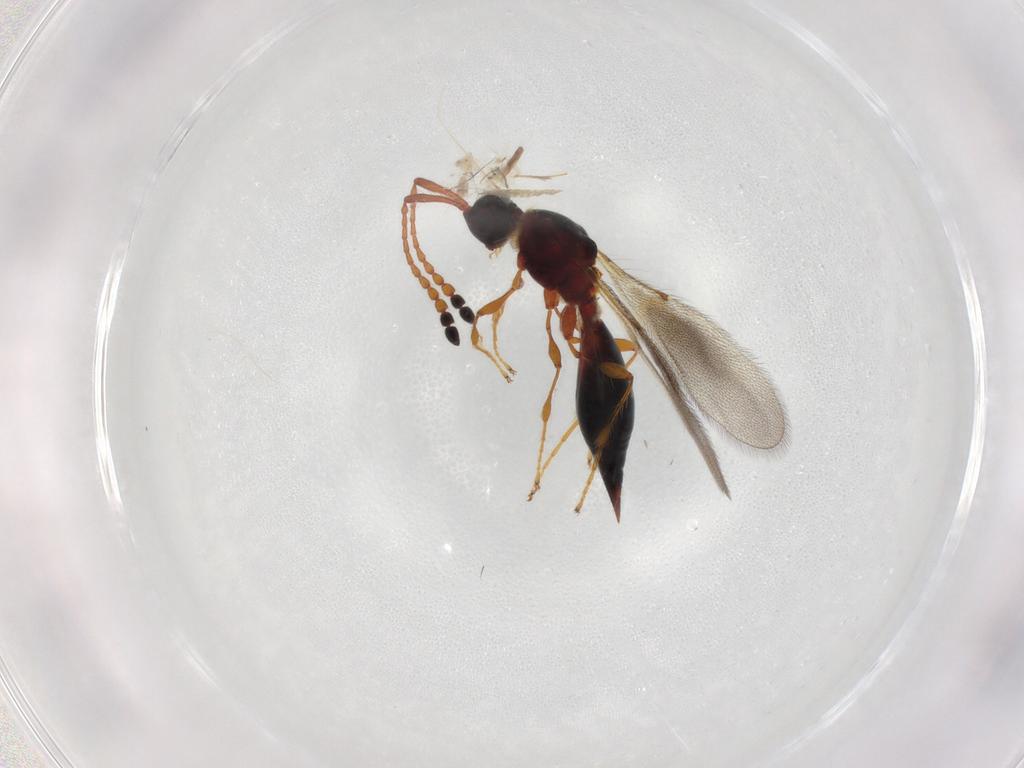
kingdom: Animalia
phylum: Arthropoda
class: Insecta
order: Hymenoptera
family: Diapriidae
